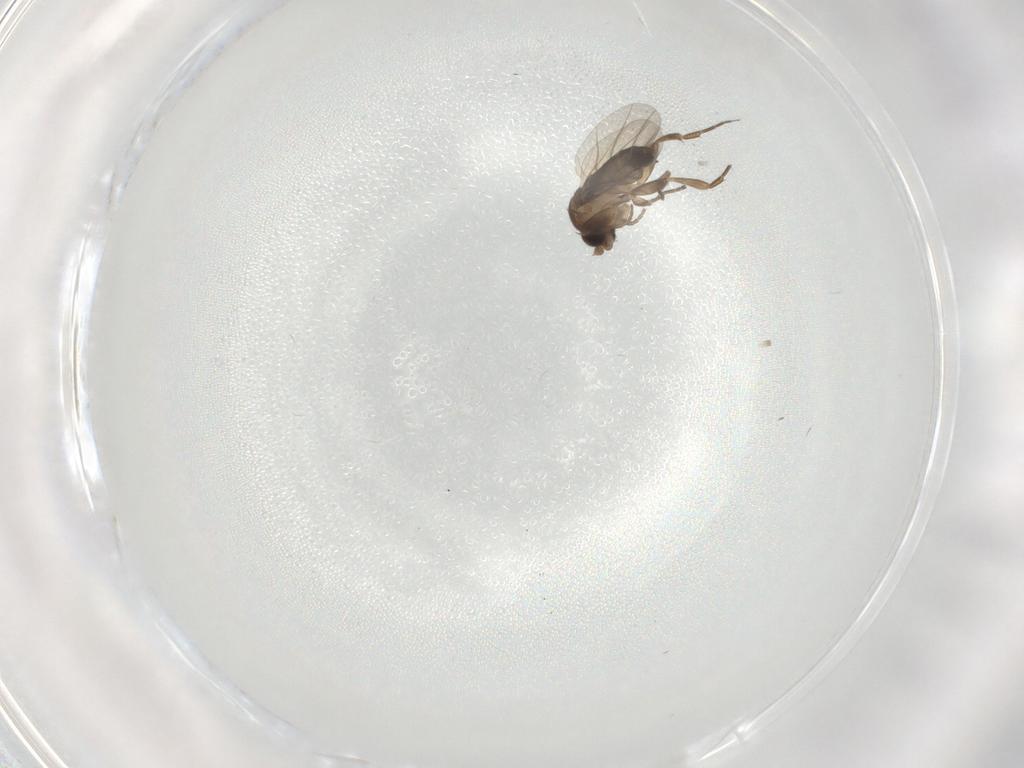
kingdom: Animalia
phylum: Arthropoda
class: Insecta
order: Diptera
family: Chironomidae
